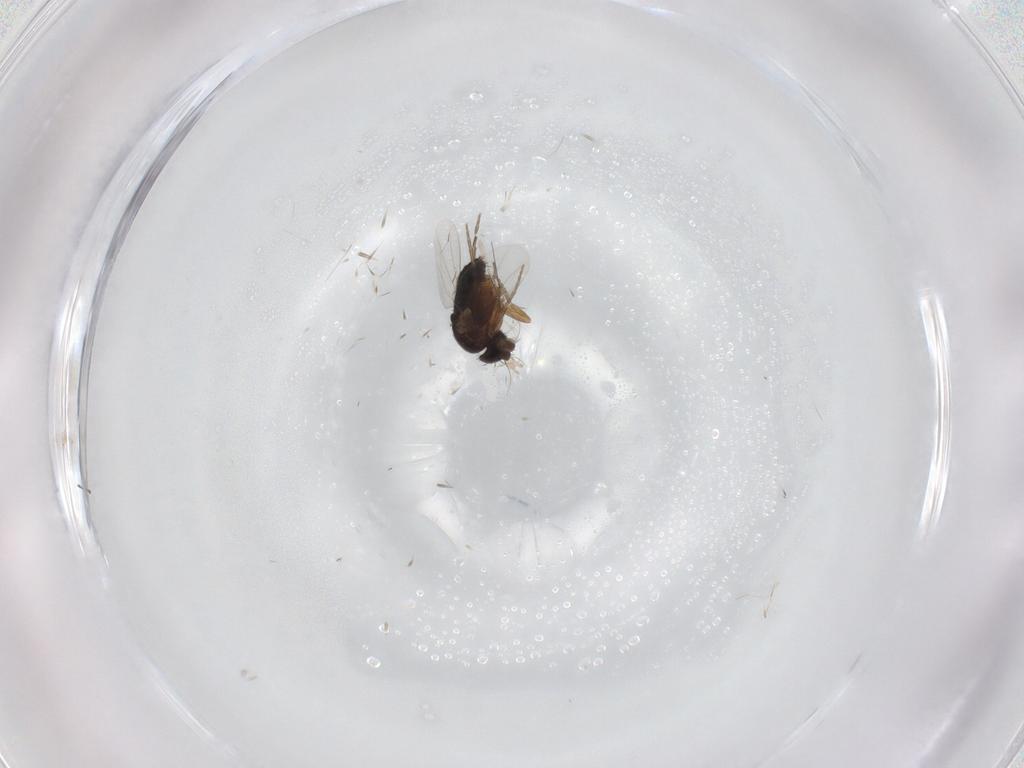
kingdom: Animalia
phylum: Arthropoda
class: Insecta
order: Diptera
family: Phoridae
